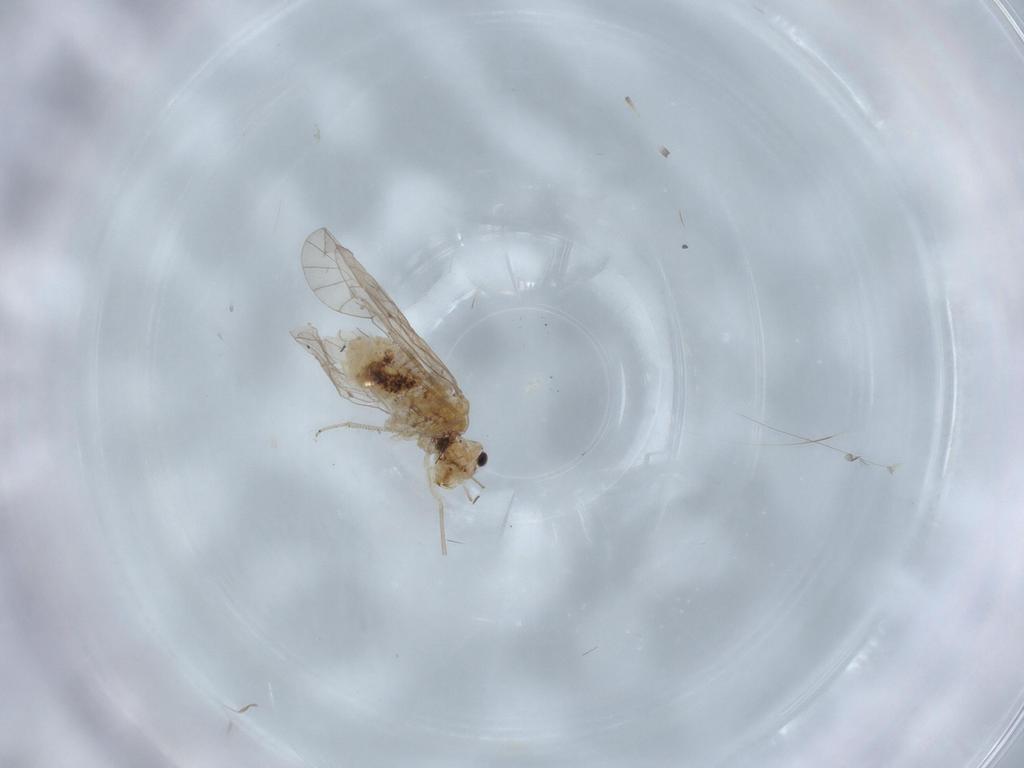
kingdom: Animalia
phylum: Arthropoda
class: Insecta
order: Psocodea
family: Lachesillidae
